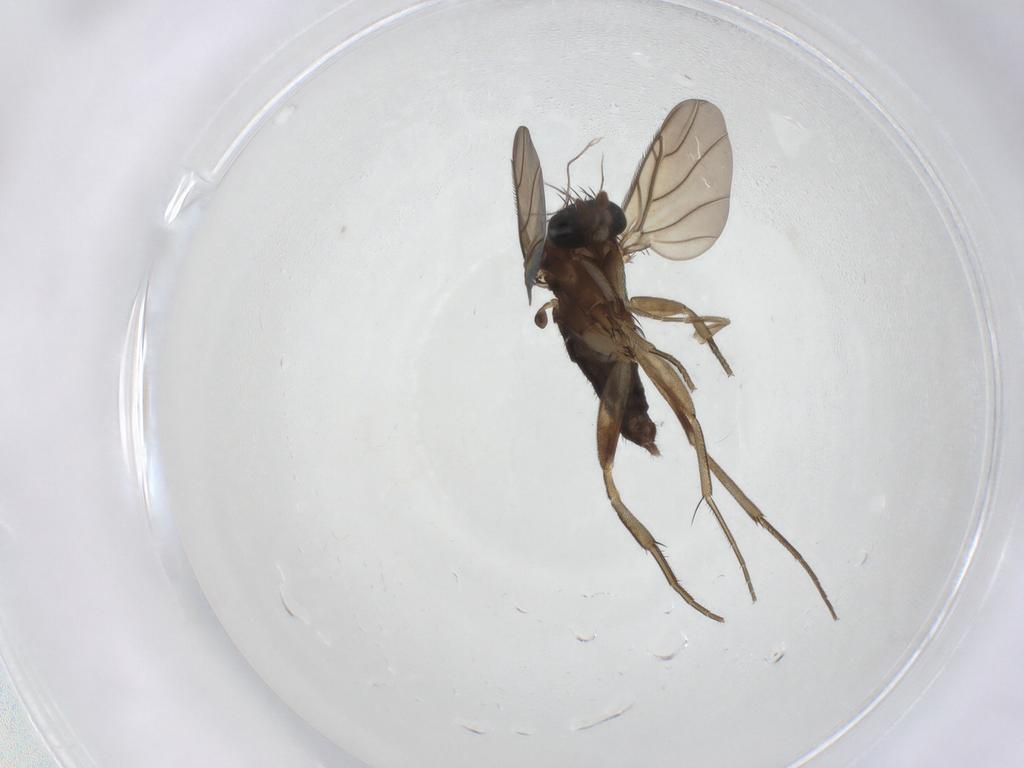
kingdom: Animalia
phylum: Arthropoda
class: Insecta
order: Diptera
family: Phoridae
